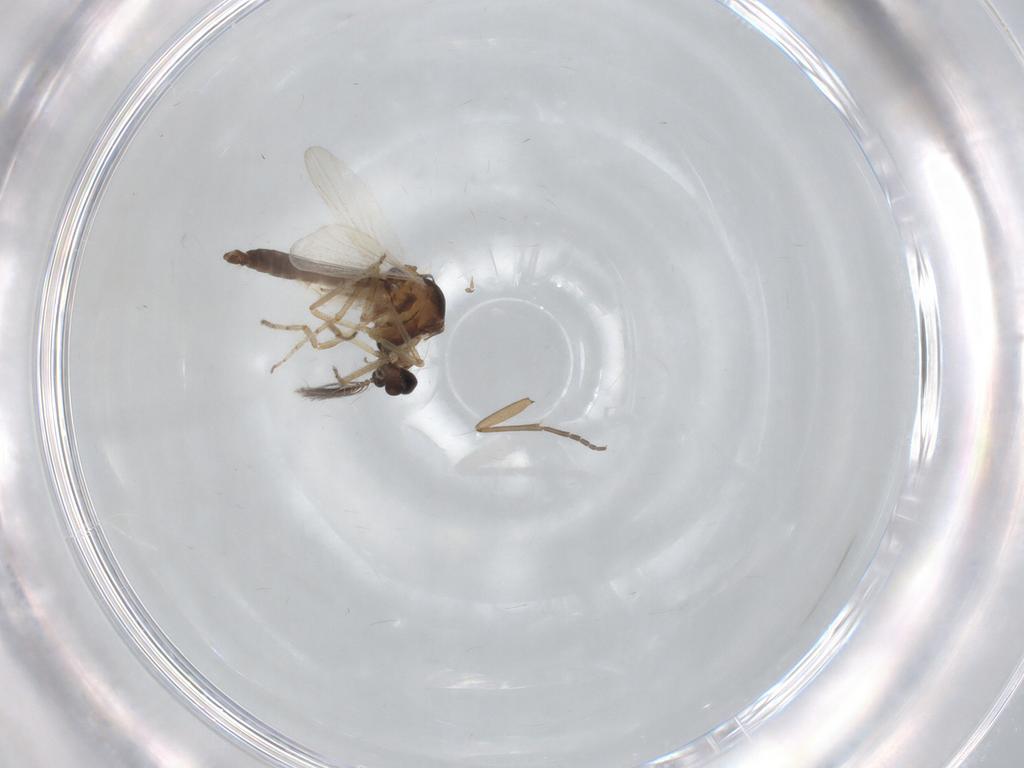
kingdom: Animalia
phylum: Arthropoda
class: Insecta
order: Diptera
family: Ceratopogonidae
